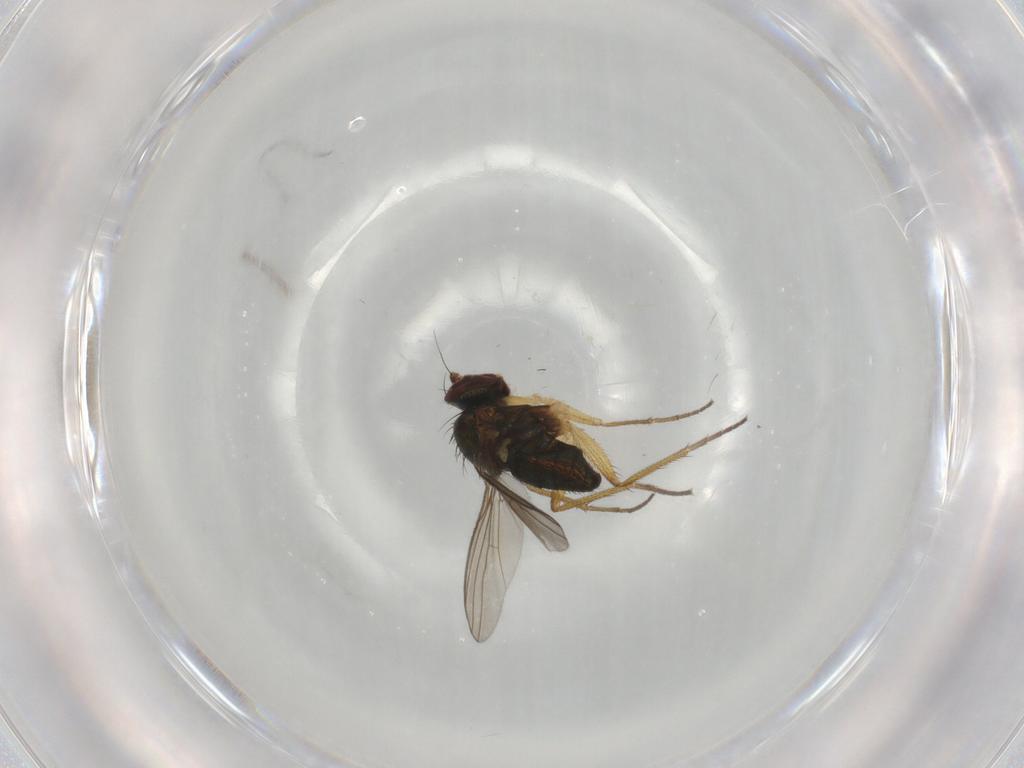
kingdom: Animalia
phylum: Arthropoda
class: Insecta
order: Diptera
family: Dolichopodidae
